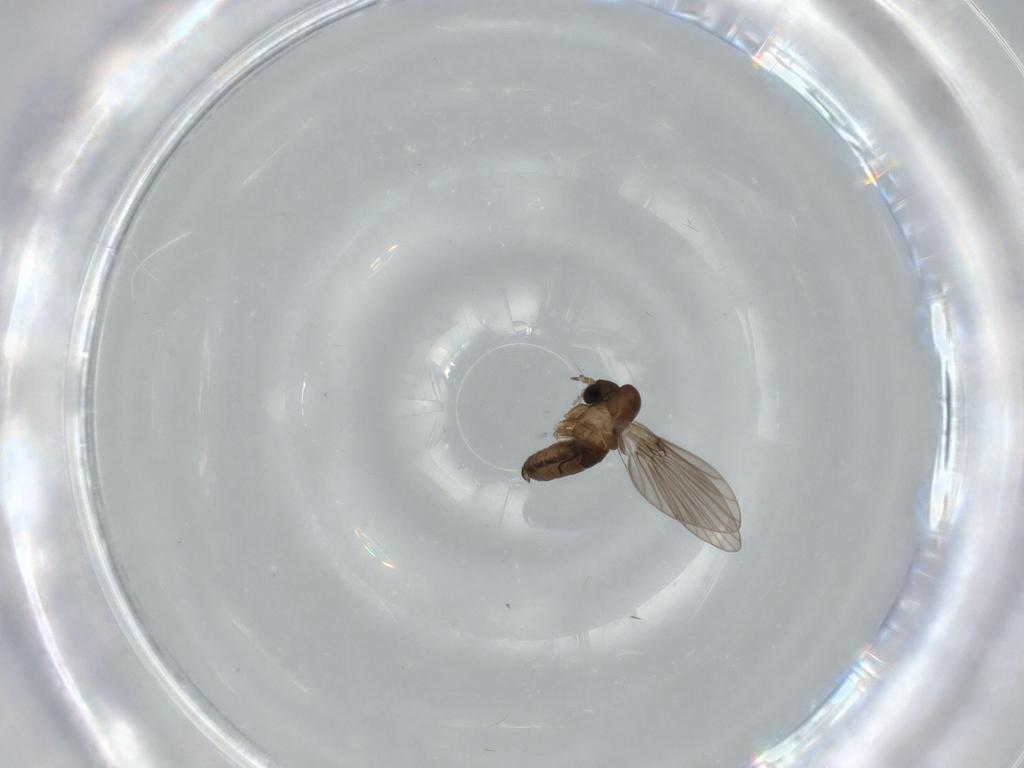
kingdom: Animalia
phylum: Arthropoda
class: Insecta
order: Diptera
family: Psychodidae
